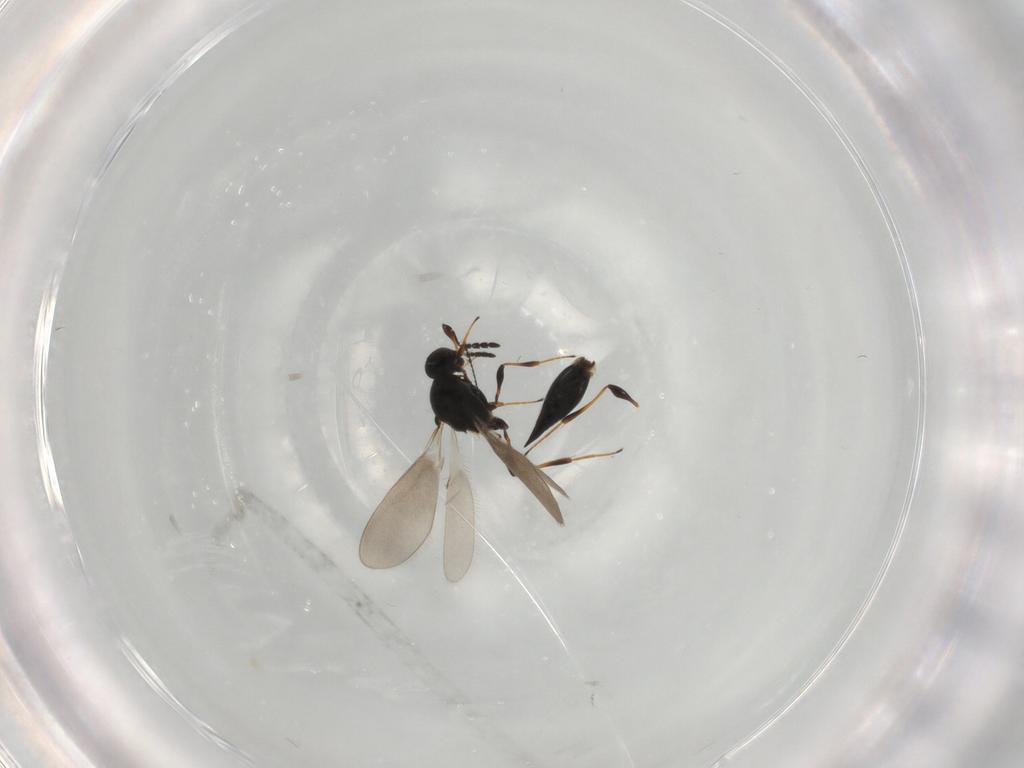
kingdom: Animalia
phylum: Arthropoda
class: Insecta
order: Hymenoptera
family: Platygastridae
